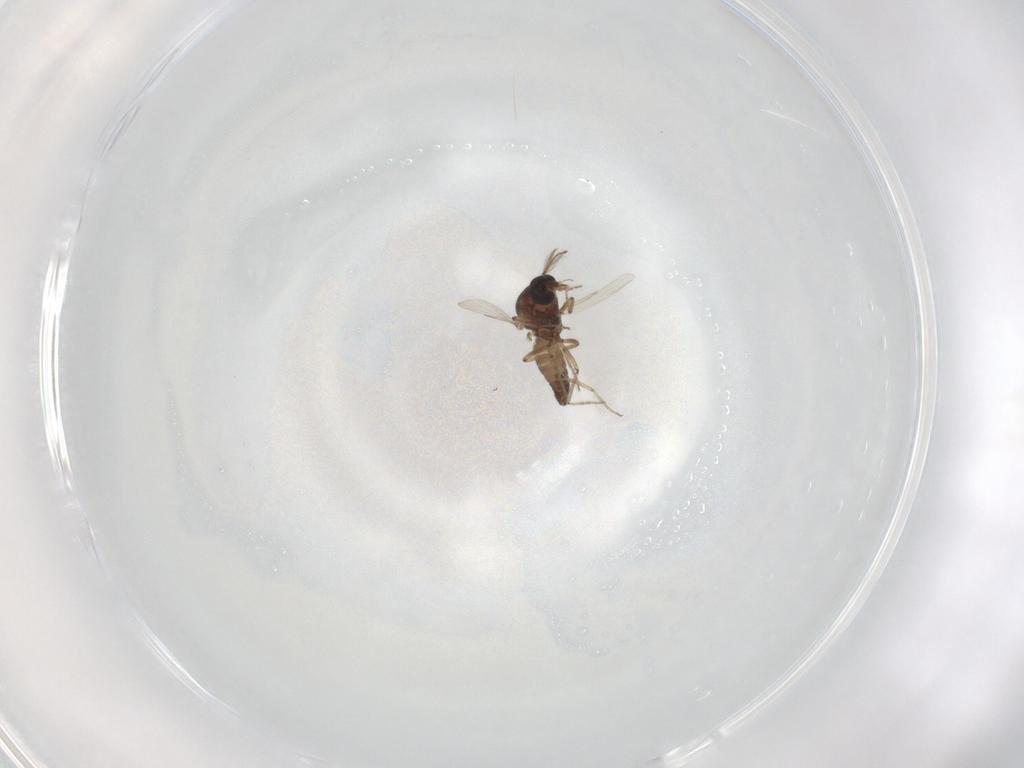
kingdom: Animalia
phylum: Arthropoda
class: Insecta
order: Diptera
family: Ceratopogonidae
